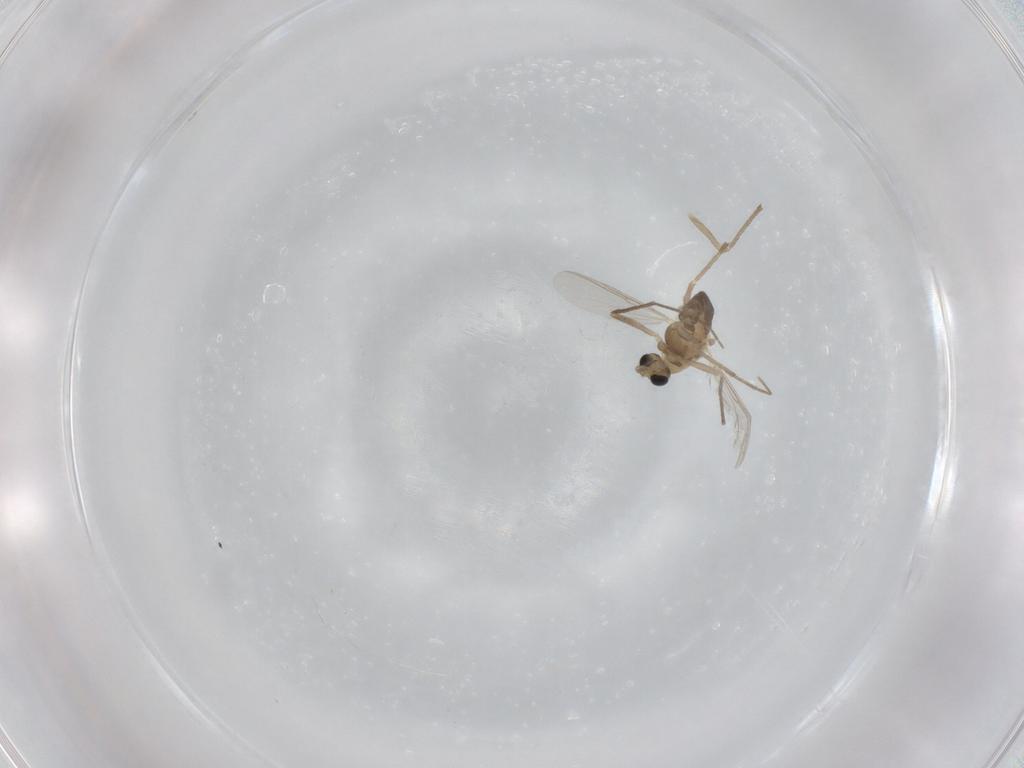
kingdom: Animalia
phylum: Arthropoda
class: Insecta
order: Diptera
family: Chironomidae
